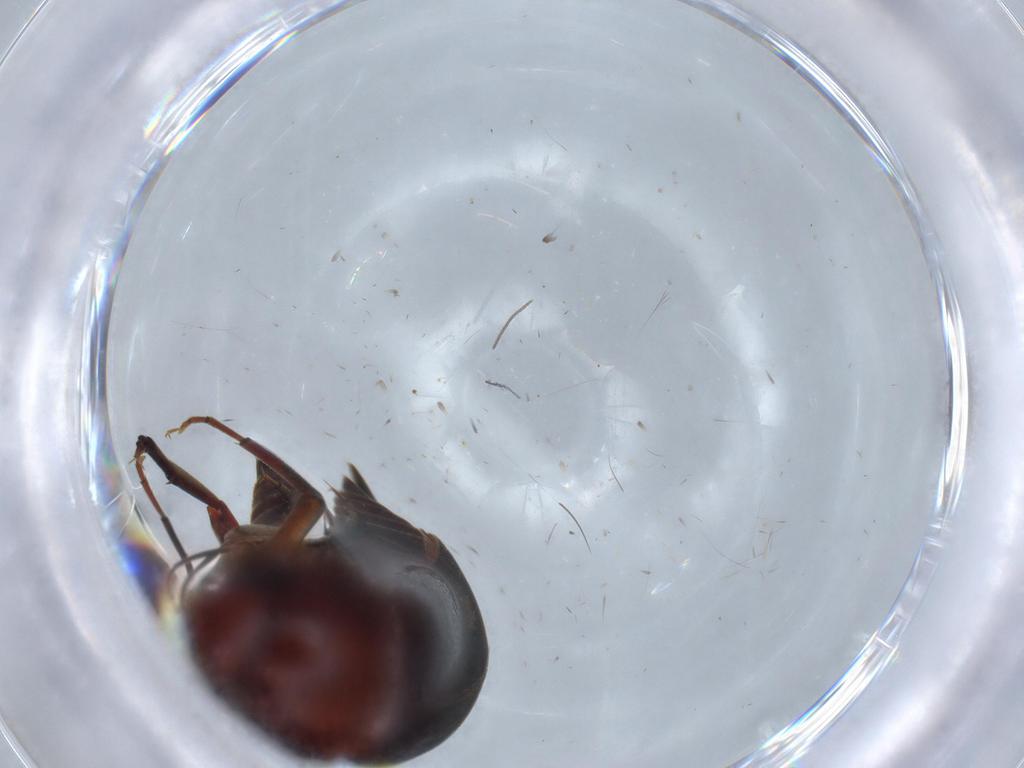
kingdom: Animalia
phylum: Arthropoda
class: Insecta
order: Coleoptera
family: Mordellidae
